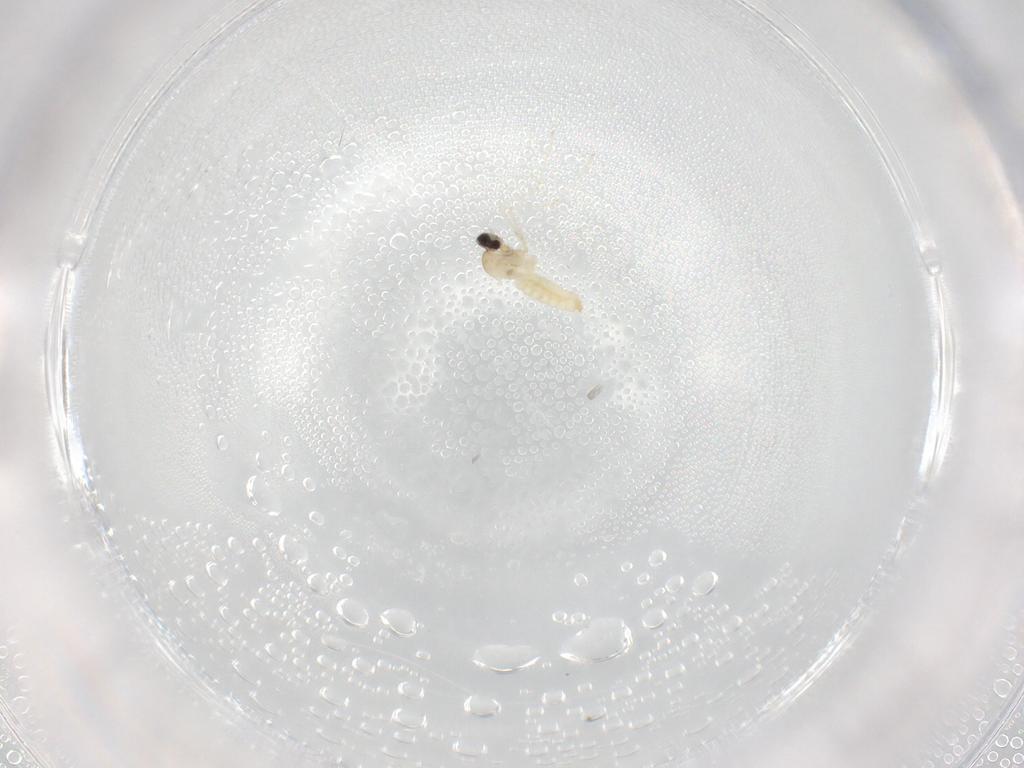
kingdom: Animalia
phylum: Arthropoda
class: Insecta
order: Diptera
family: Cecidomyiidae
